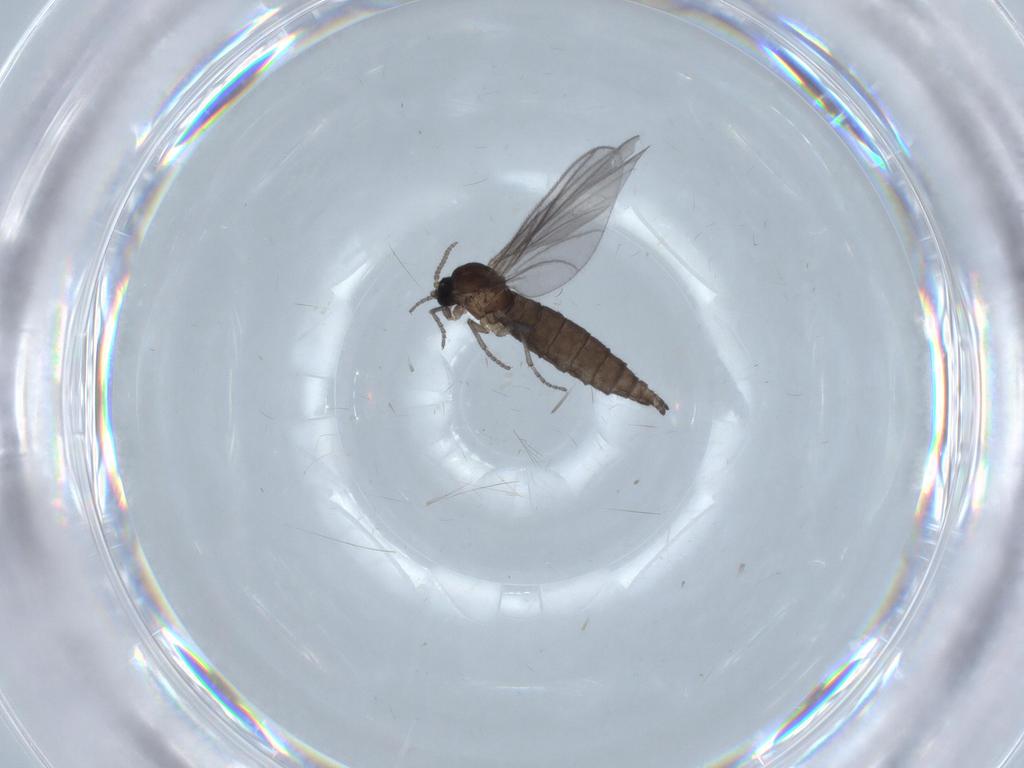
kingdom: Animalia
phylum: Arthropoda
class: Insecta
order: Diptera
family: Sciaridae
